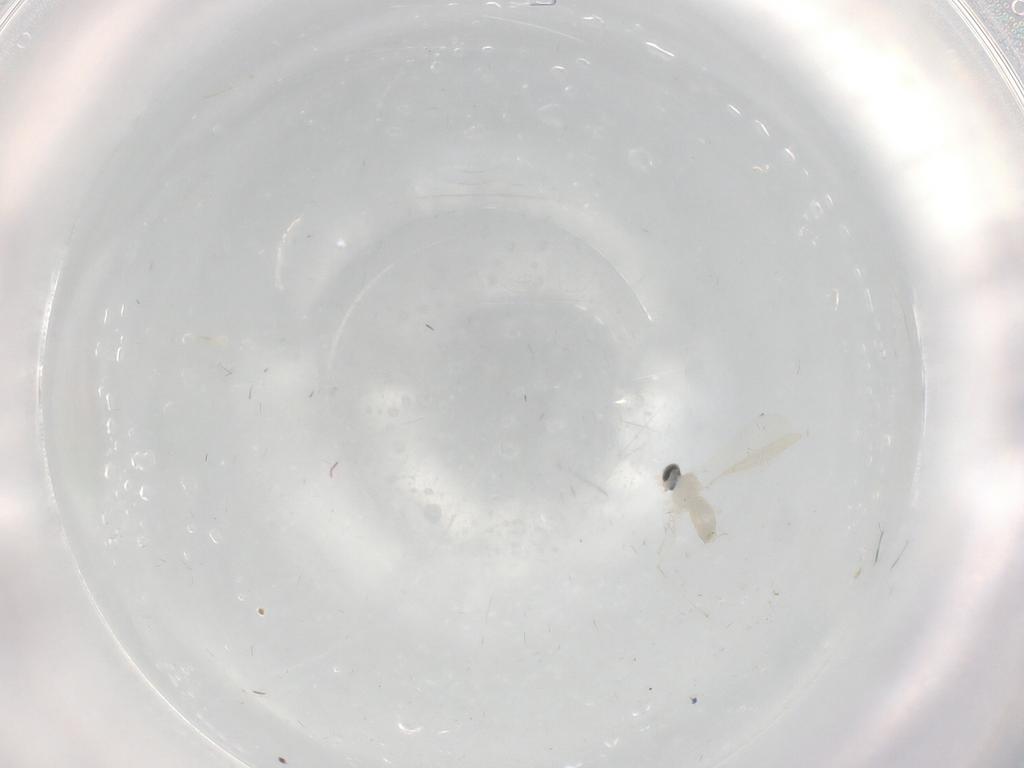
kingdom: Animalia
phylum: Arthropoda
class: Insecta
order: Diptera
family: Cecidomyiidae
